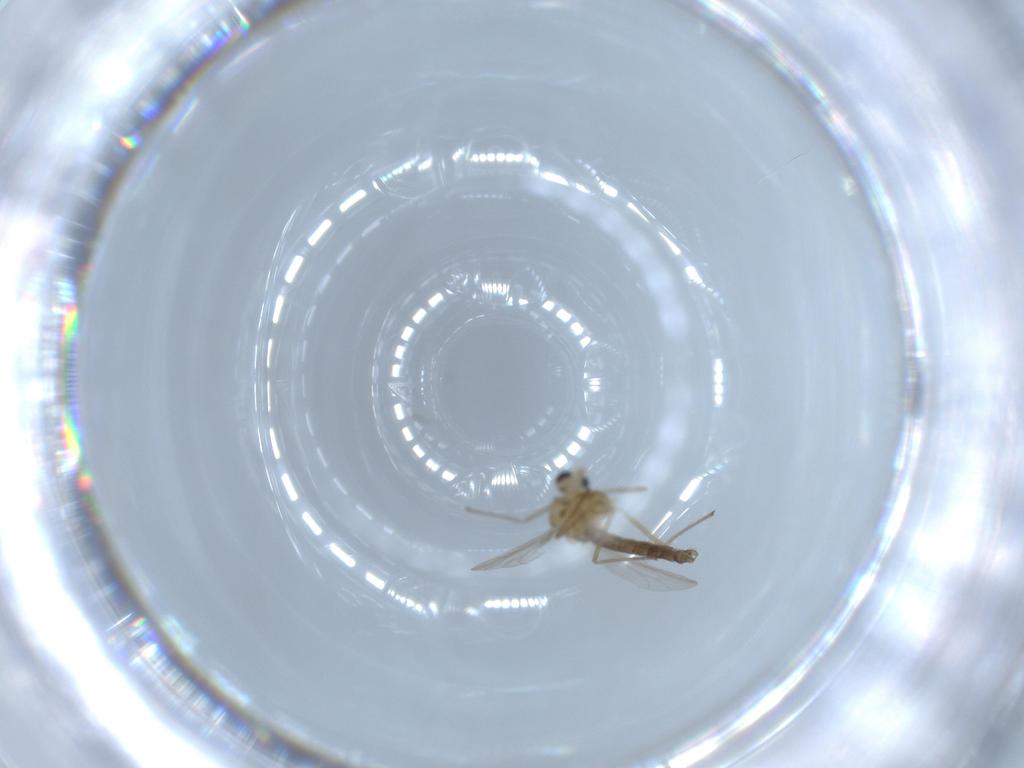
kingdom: Animalia
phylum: Arthropoda
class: Insecta
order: Diptera
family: Chironomidae
